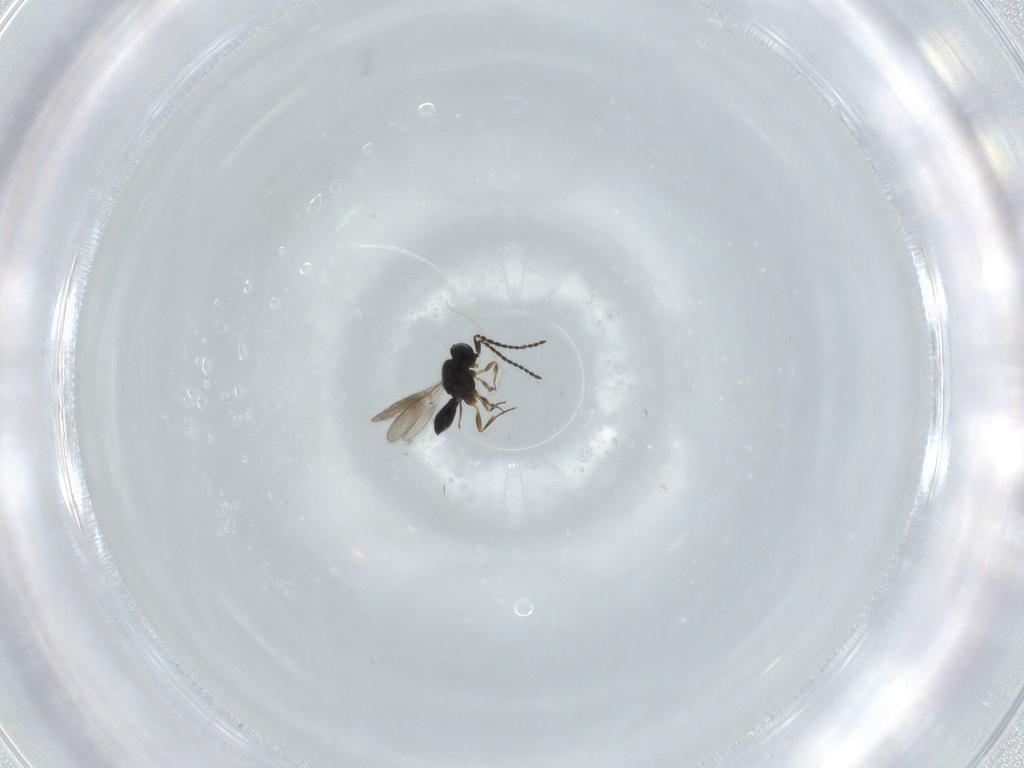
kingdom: Animalia
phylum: Arthropoda
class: Insecta
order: Hymenoptera
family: Scelionidae
